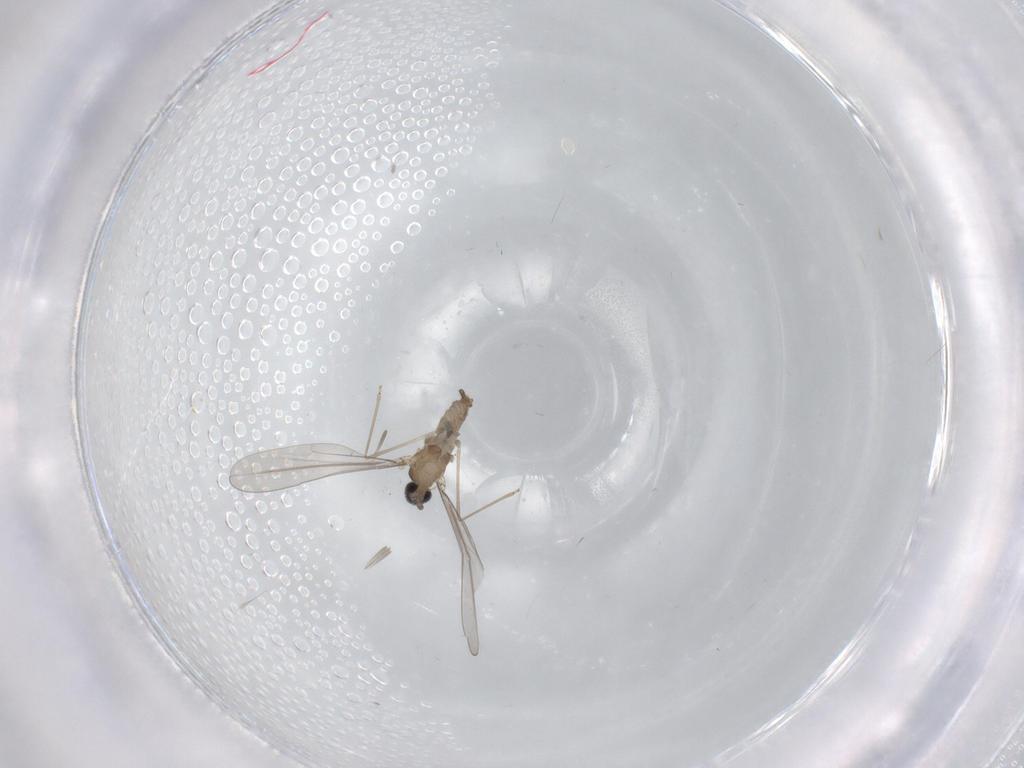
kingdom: Animalia
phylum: Arthropoda
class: Insecta
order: Diptera
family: Cecidomyiidae
